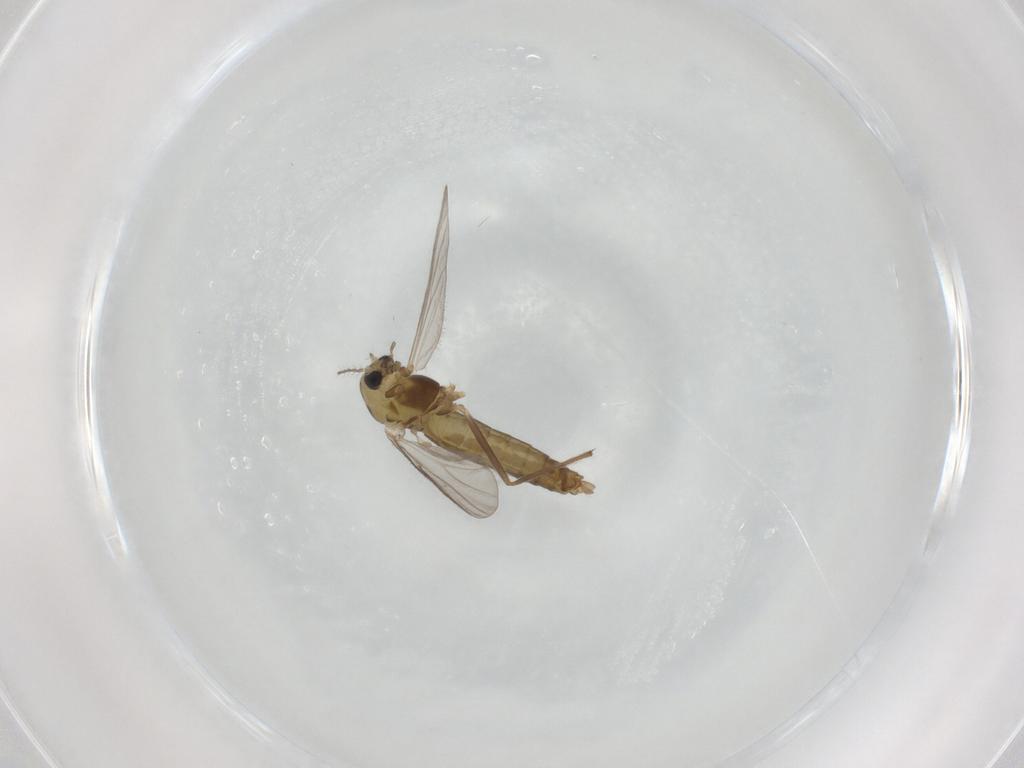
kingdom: Animalia
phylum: Arthropoda
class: Insecta
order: Diptera
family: Chironomidae
